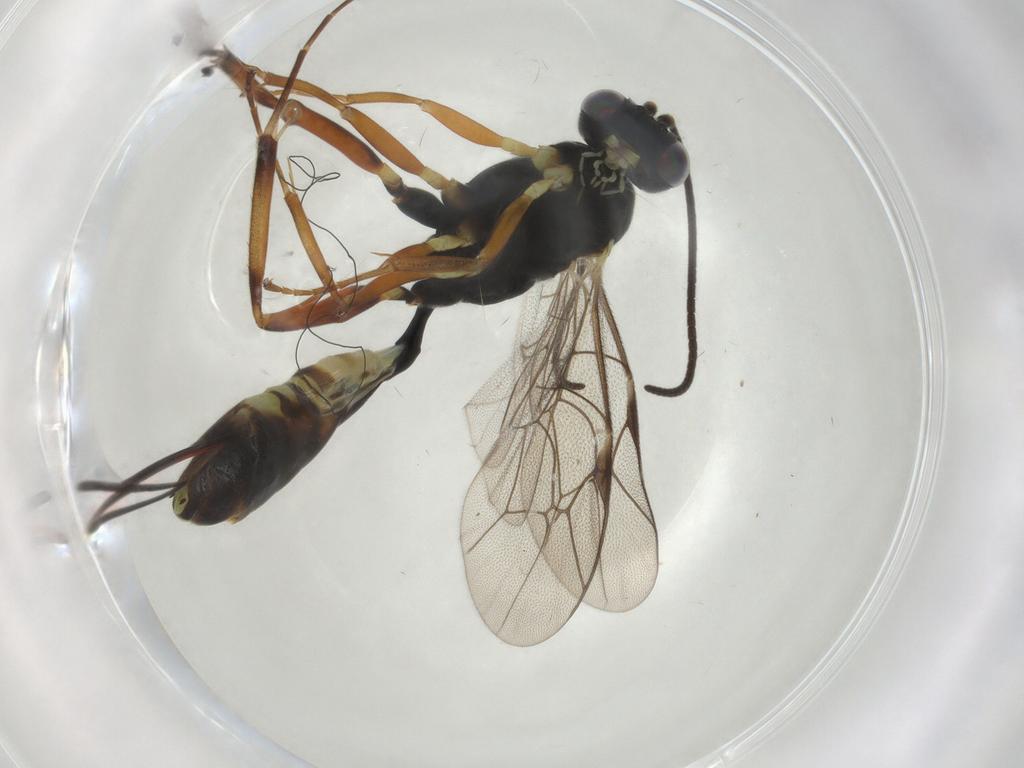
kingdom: Animalia
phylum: Arthropoda
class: Insecta
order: Hymenoptera
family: Ichneumonidae
